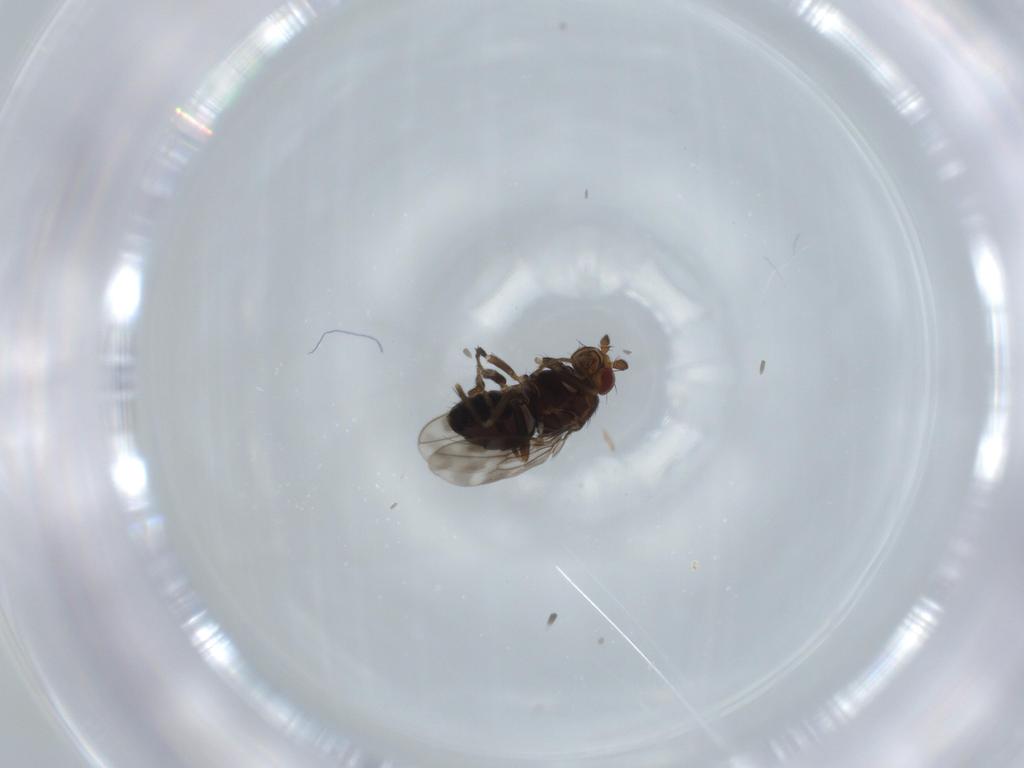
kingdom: Animalia
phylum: Arthropoda
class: Insecta
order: Diptera
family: Sphaeroceridae
